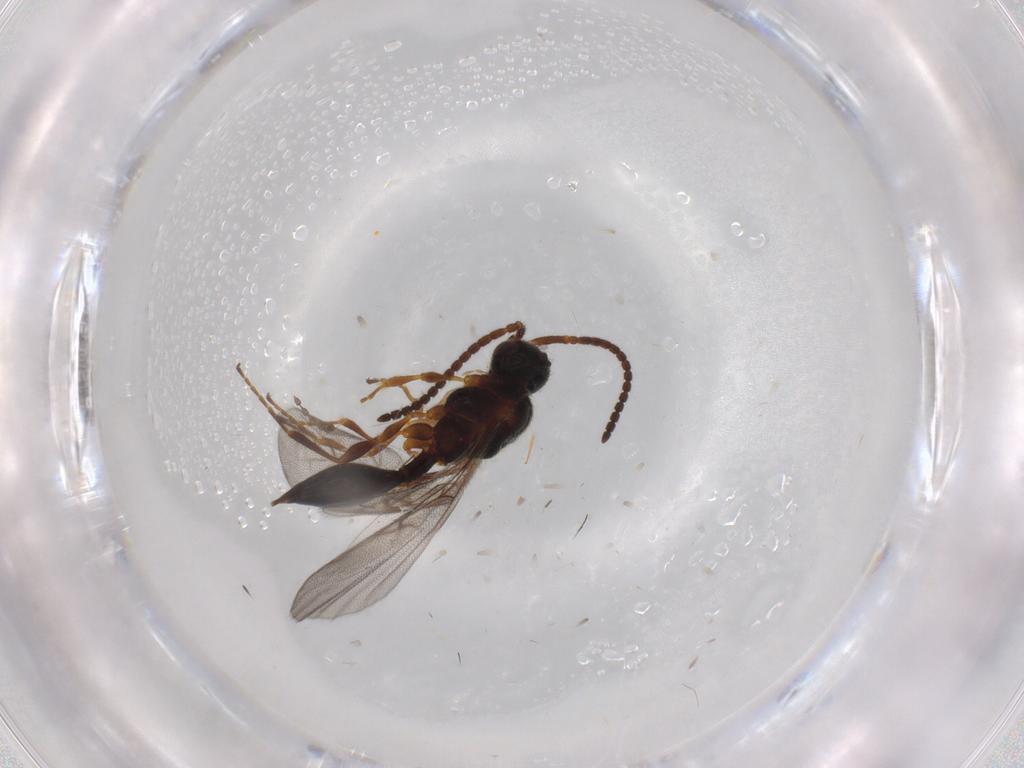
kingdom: Animalia
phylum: Arthropoda
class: Insecta
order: Hymenoptera
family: Diapriidae
